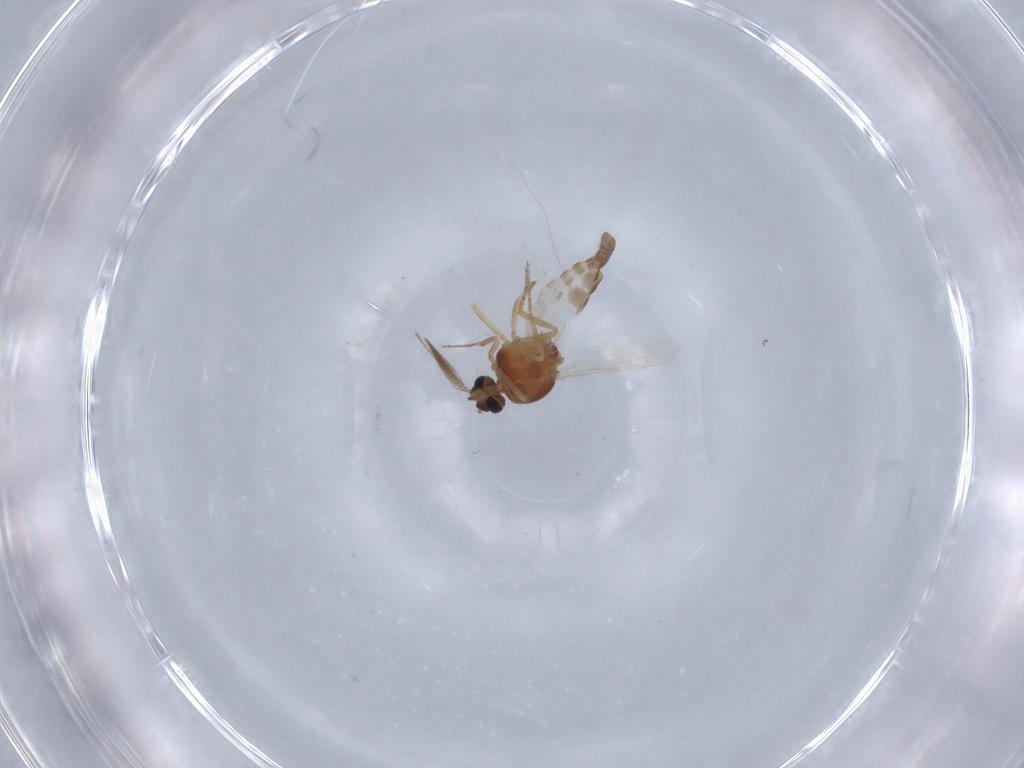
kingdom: Animalia
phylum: Arthropoda
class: Insecta
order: Diptera
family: Ceratopogonidae
